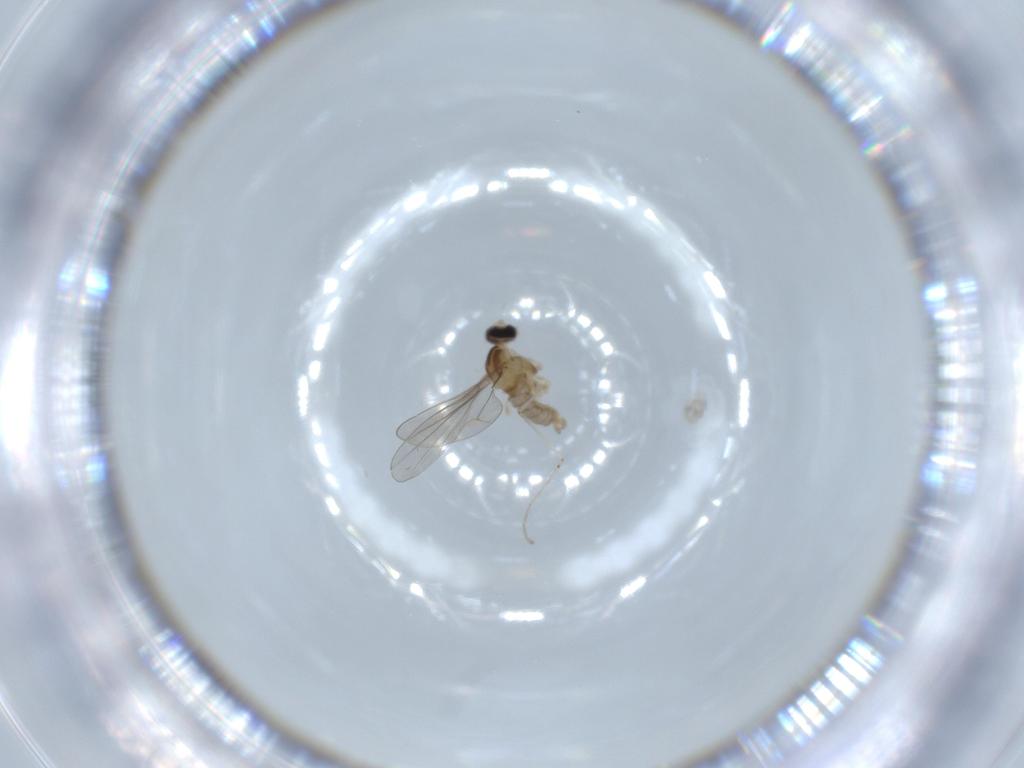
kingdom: Animalia
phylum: Arthropoda
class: Insecta
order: Diptera
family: Cecidomyiidae
